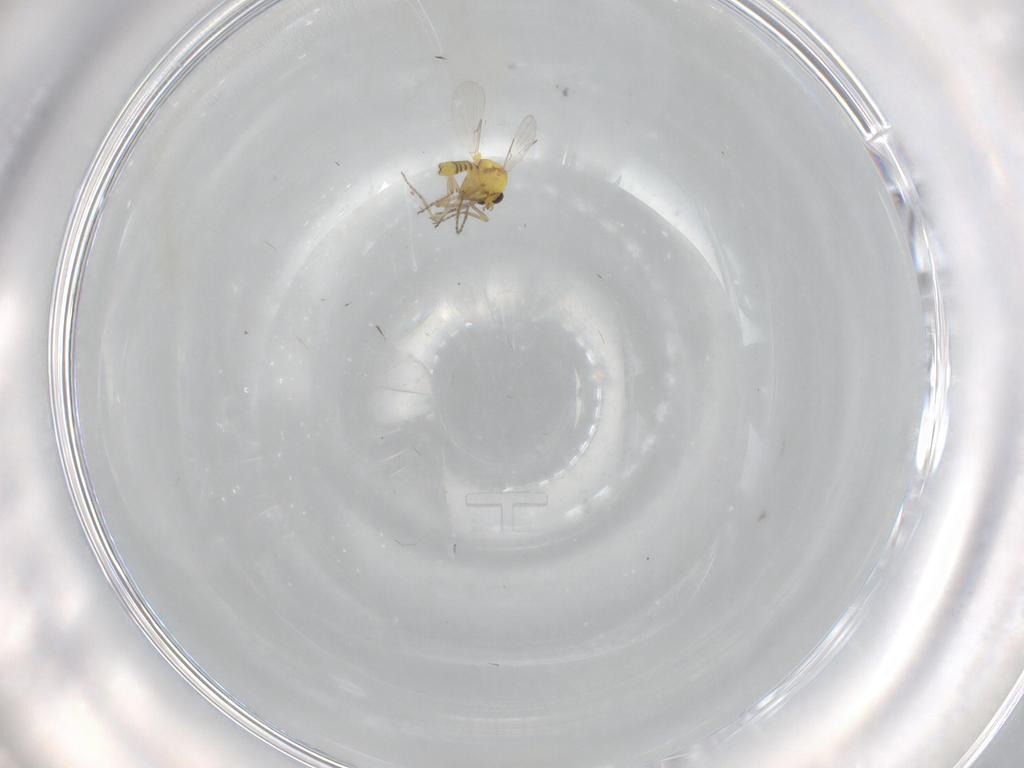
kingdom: Animalia
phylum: Arthropoda
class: Insecta
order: Diptera
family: Ceratopogonidae
